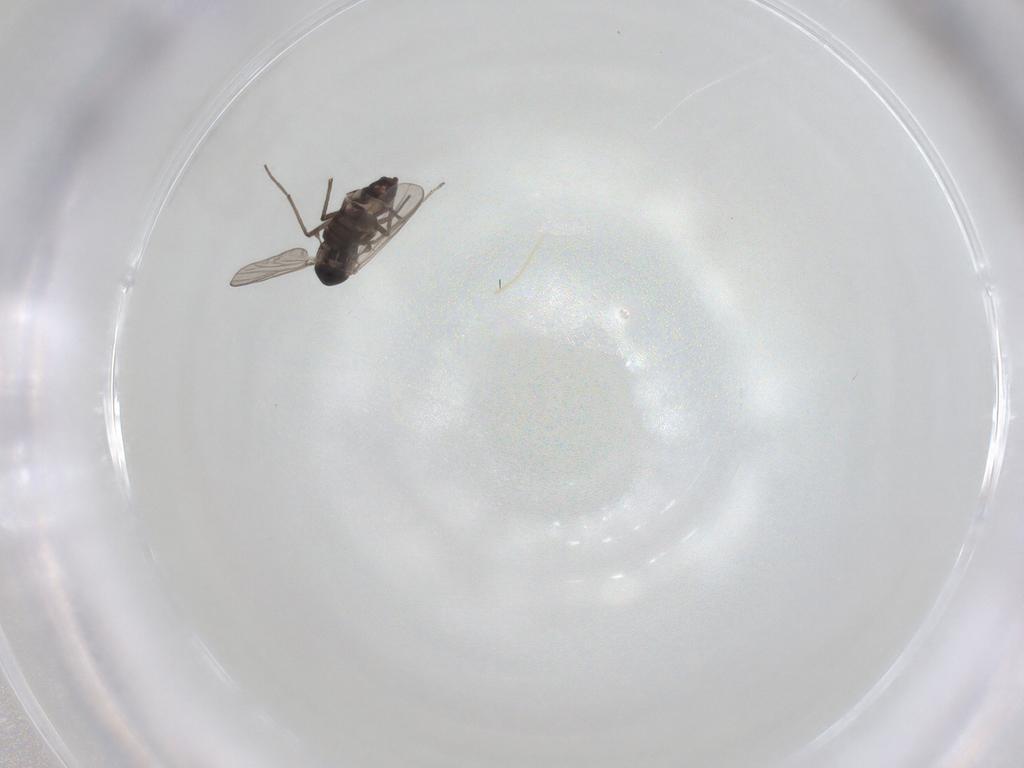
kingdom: Animalia
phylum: Arthropoda
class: Insecta
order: Diptera
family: Chironomidae
